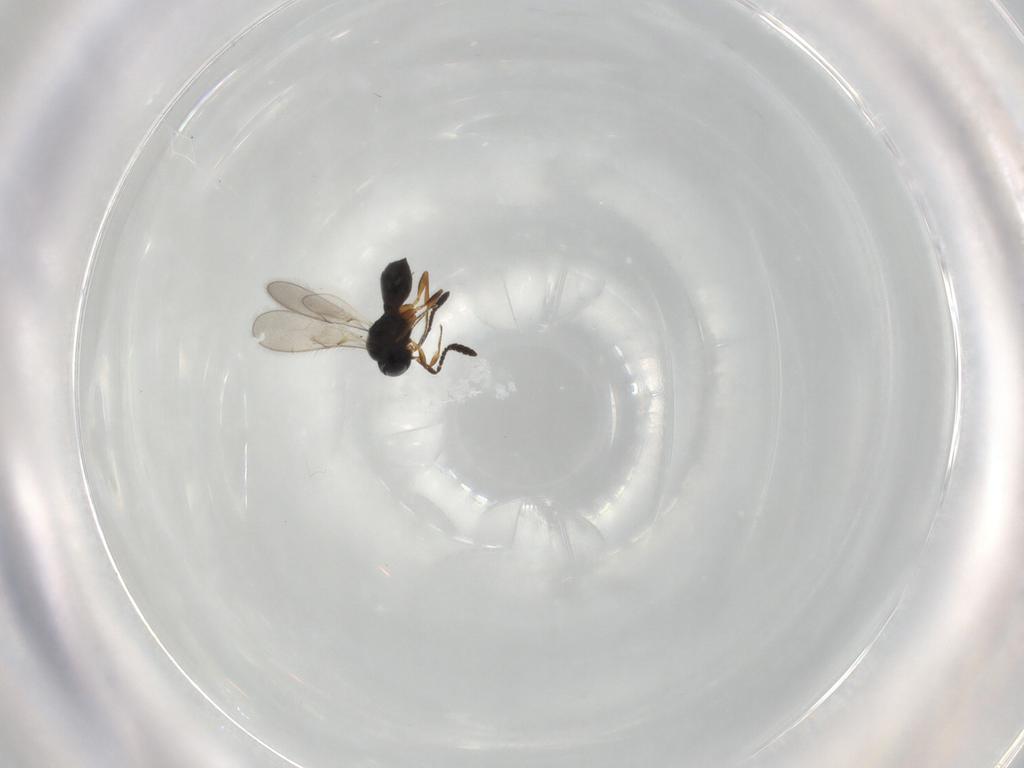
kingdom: Animalia
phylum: Arthropoda
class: Insecta
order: Hymenoptera
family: Scelionidae
